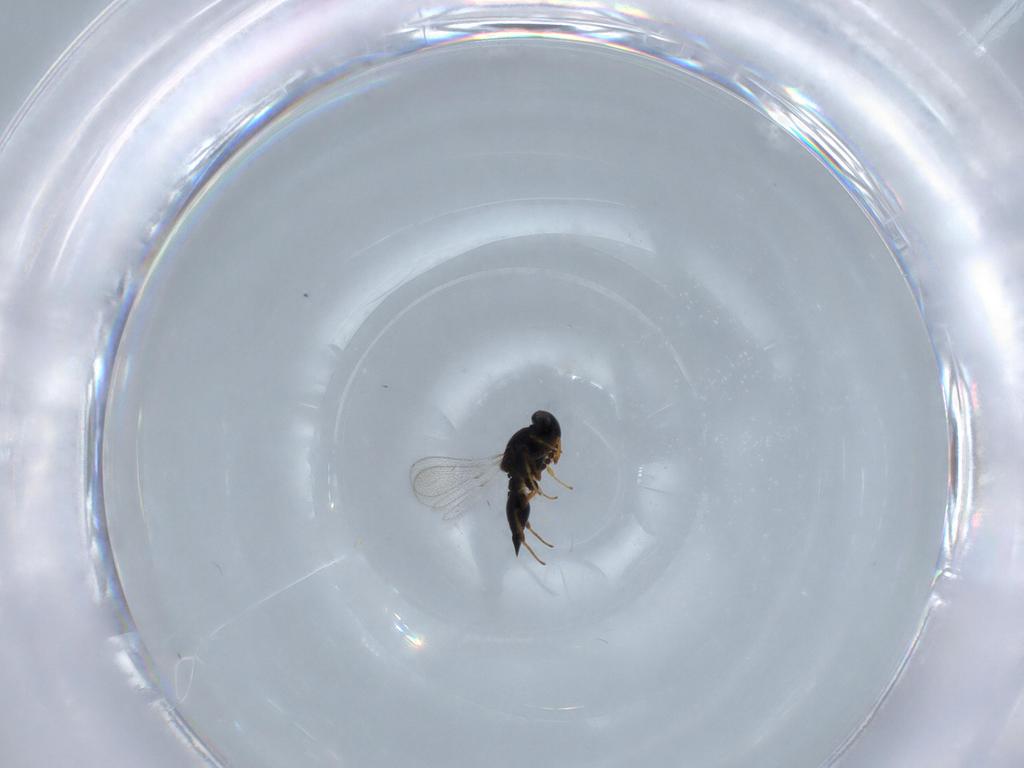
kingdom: Animalia
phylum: Arthropoda
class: Insecta
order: Hymenoptera
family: Platygastridae
